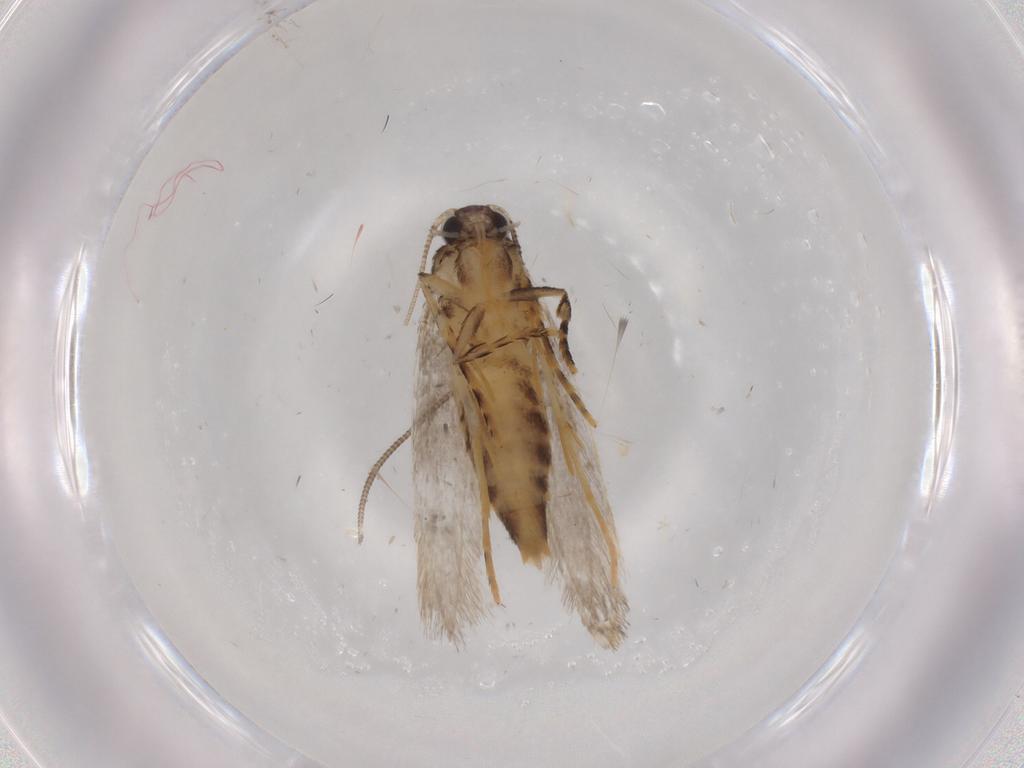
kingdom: Animalia
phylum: Arthropoda
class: Insecta
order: Lepidoptera
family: Tineidae
